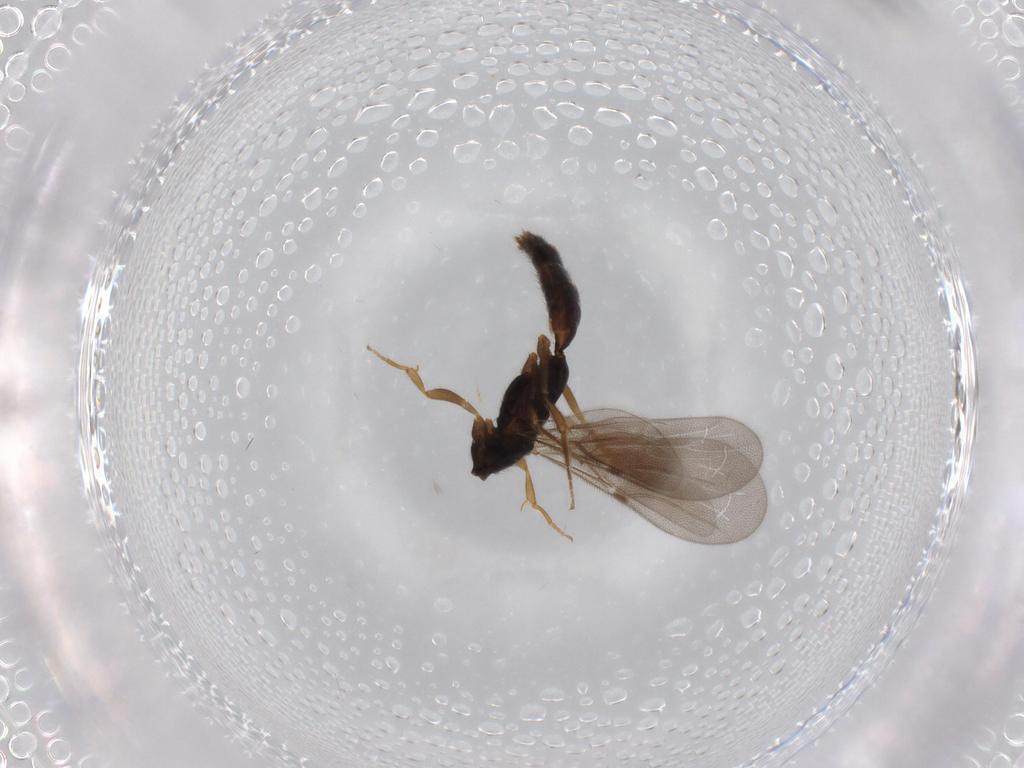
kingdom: Animalia
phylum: Arthropoda
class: Insecta
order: Hymenoptera
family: Bethylidae
